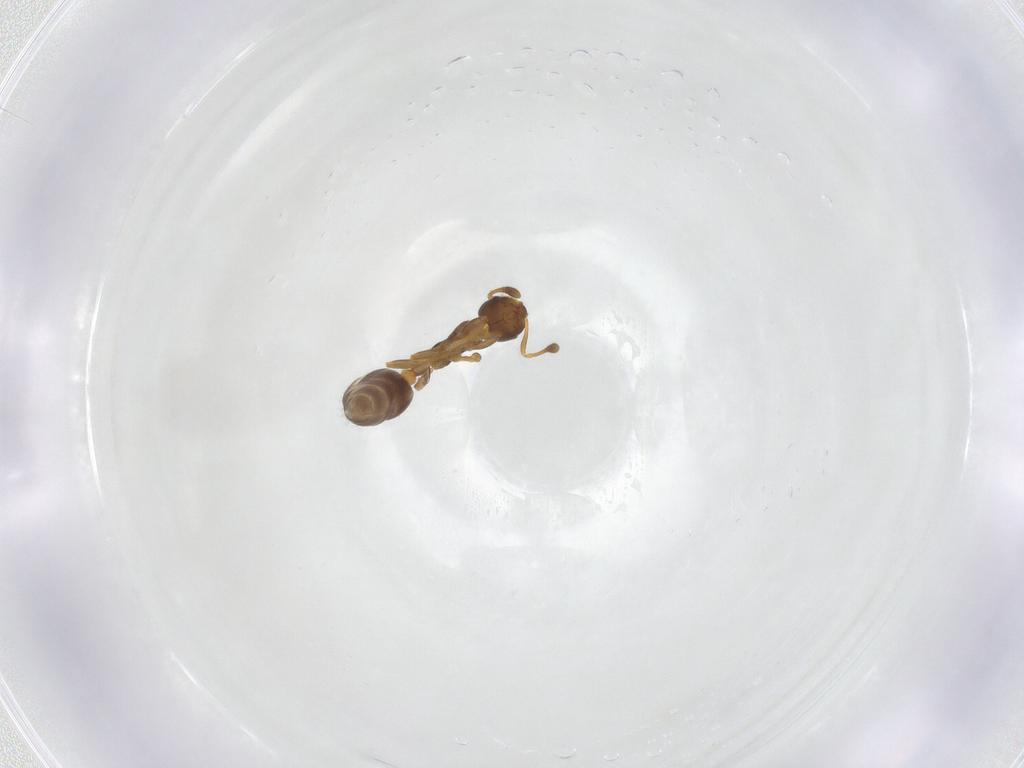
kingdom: Animalia
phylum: Arthropoda
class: Insecta
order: Hymenoptera
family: Formicidae
